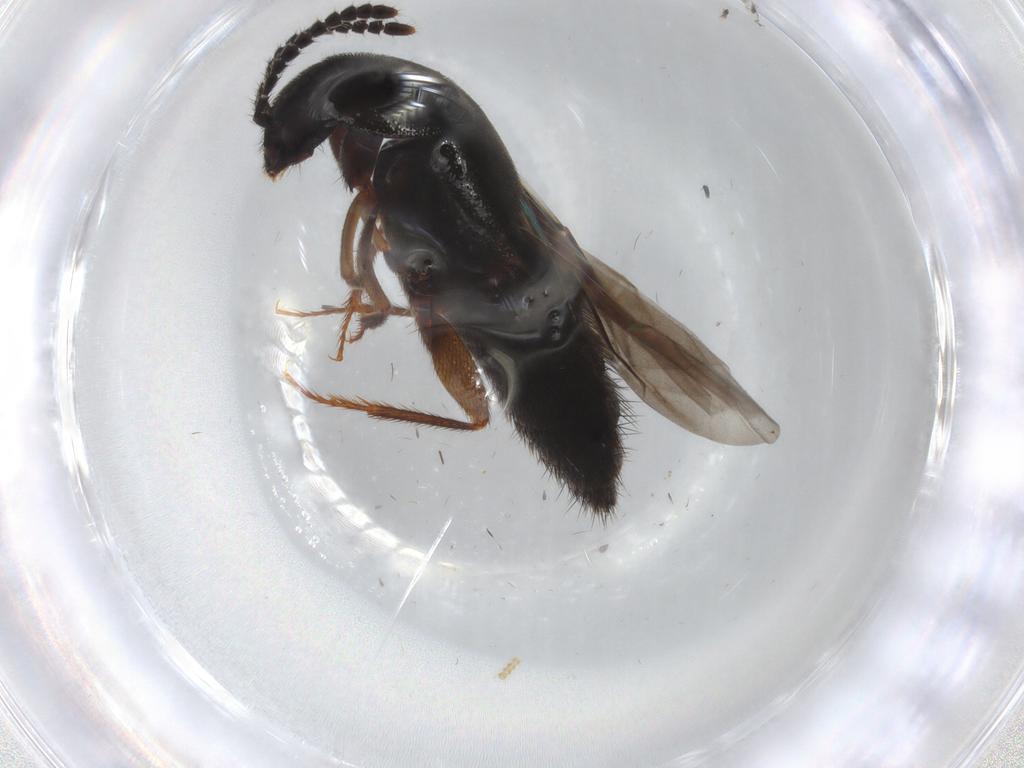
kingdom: Animalia
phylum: Arthropoda
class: Insecta
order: Coleoptera
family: Staphylinidae
